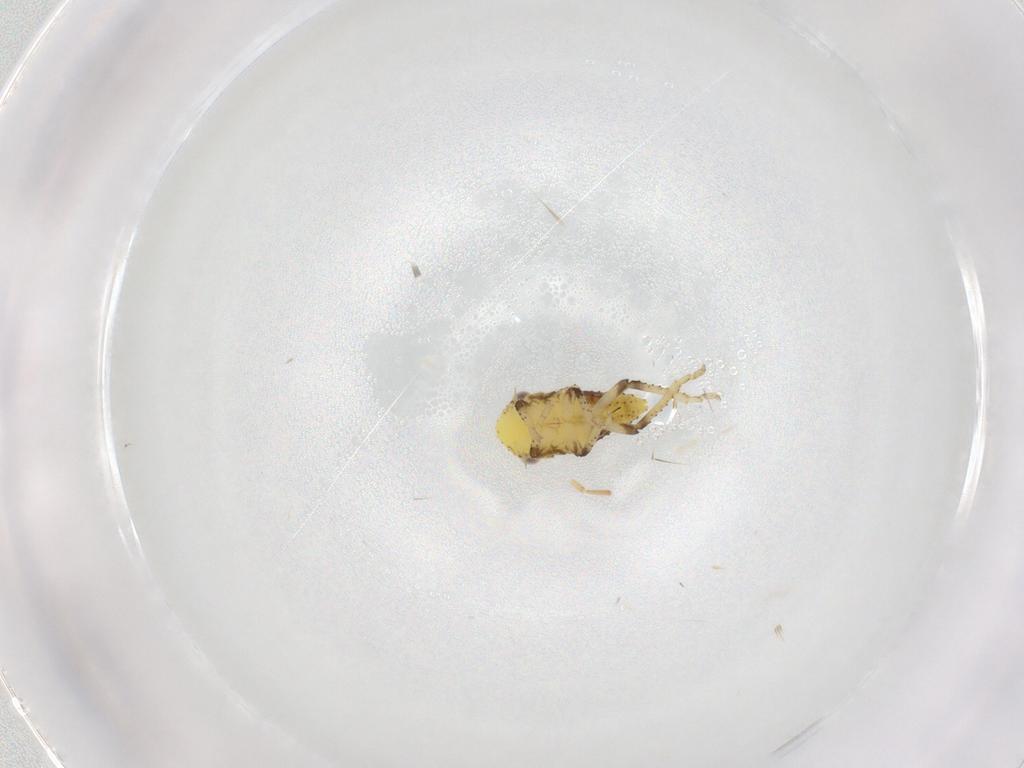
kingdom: Animalia
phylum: Arthropoda
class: Insecta
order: Hemiptera
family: Cicadellidae
